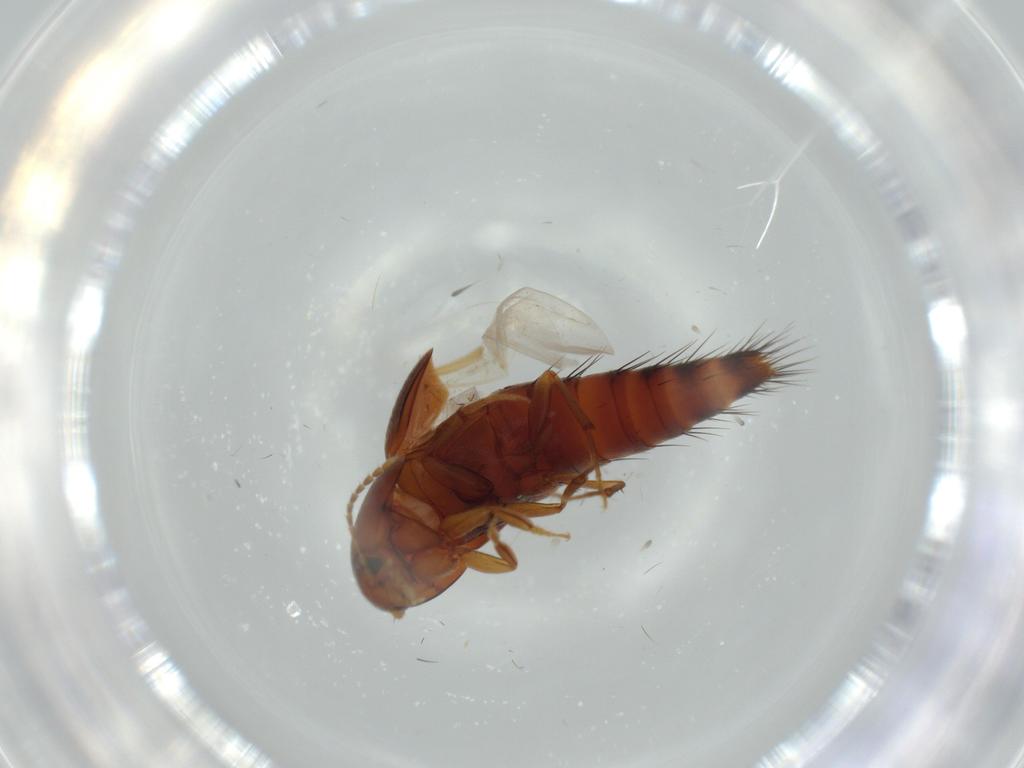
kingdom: Animalia
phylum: Arthropoda
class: Insecta
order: Coleoptera
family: Staphylinidae
